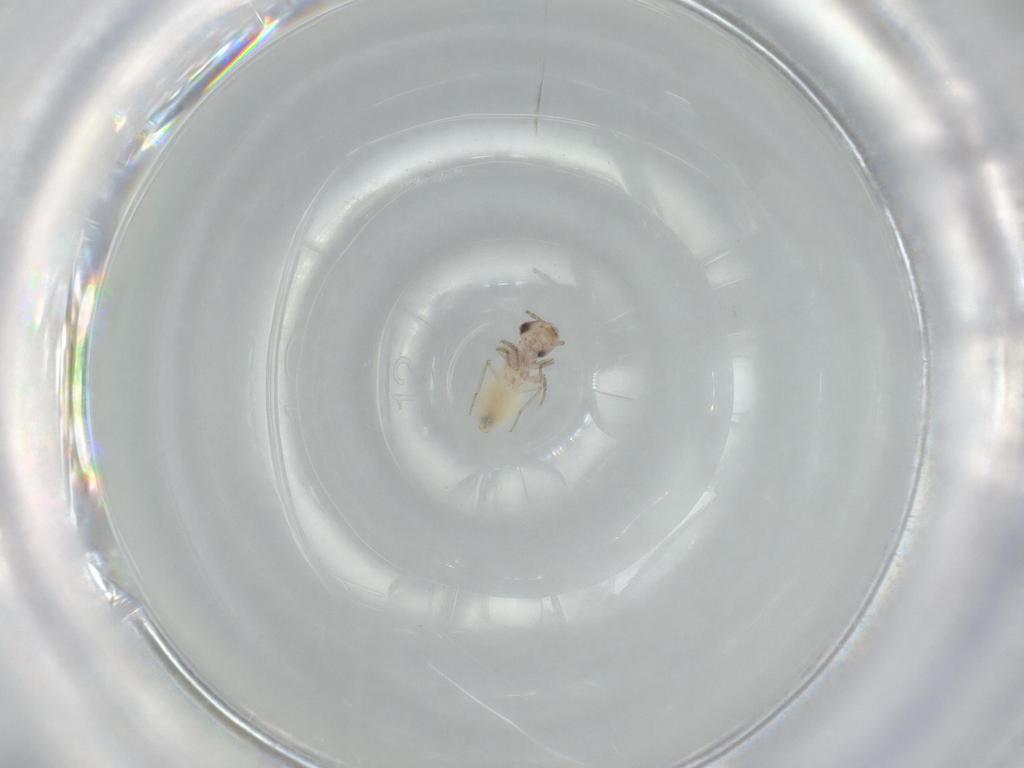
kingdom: Animalia
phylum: Arthropoda
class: Insecta
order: Psocodea
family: Lepidopsocidae
